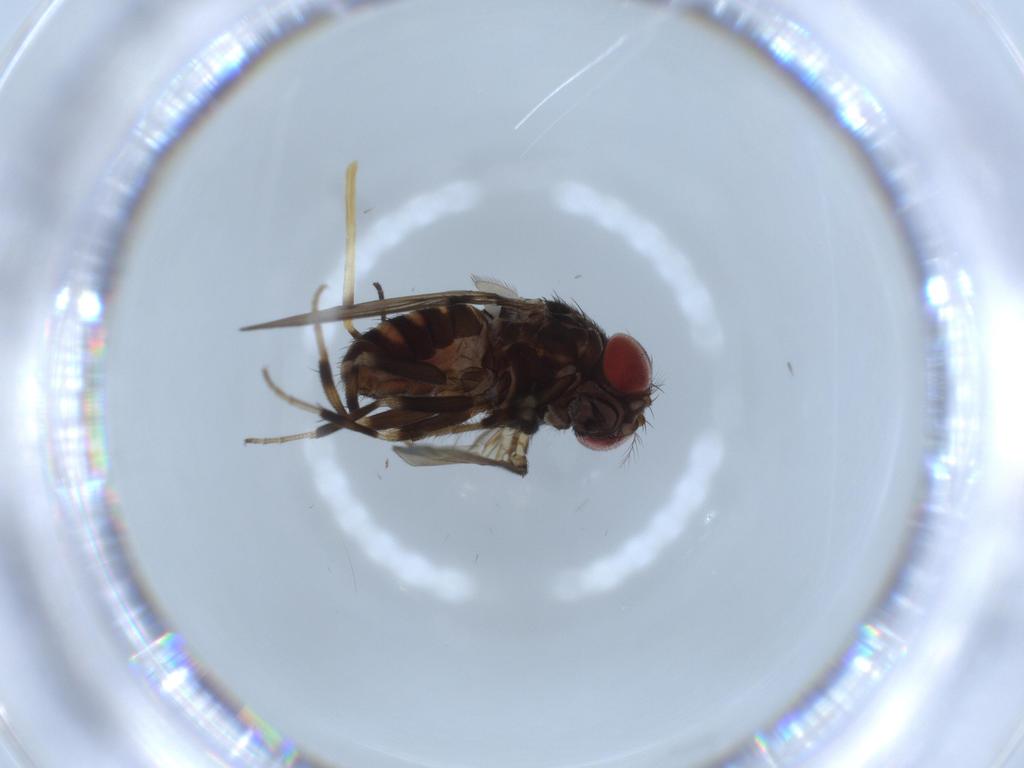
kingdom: Animalia
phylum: Arthropoda
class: Insecta
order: Diptera
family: Drosophilidae
